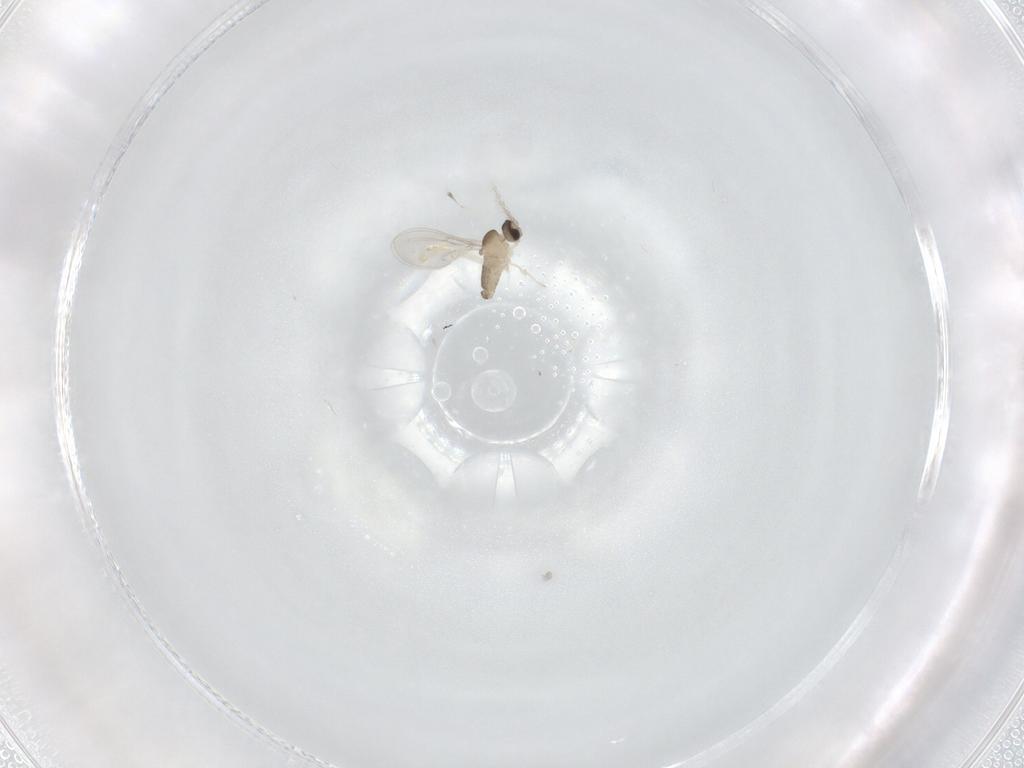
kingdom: Animalia
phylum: Arthropoda
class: Insecta
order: Diptera
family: Cecidomyiidae
